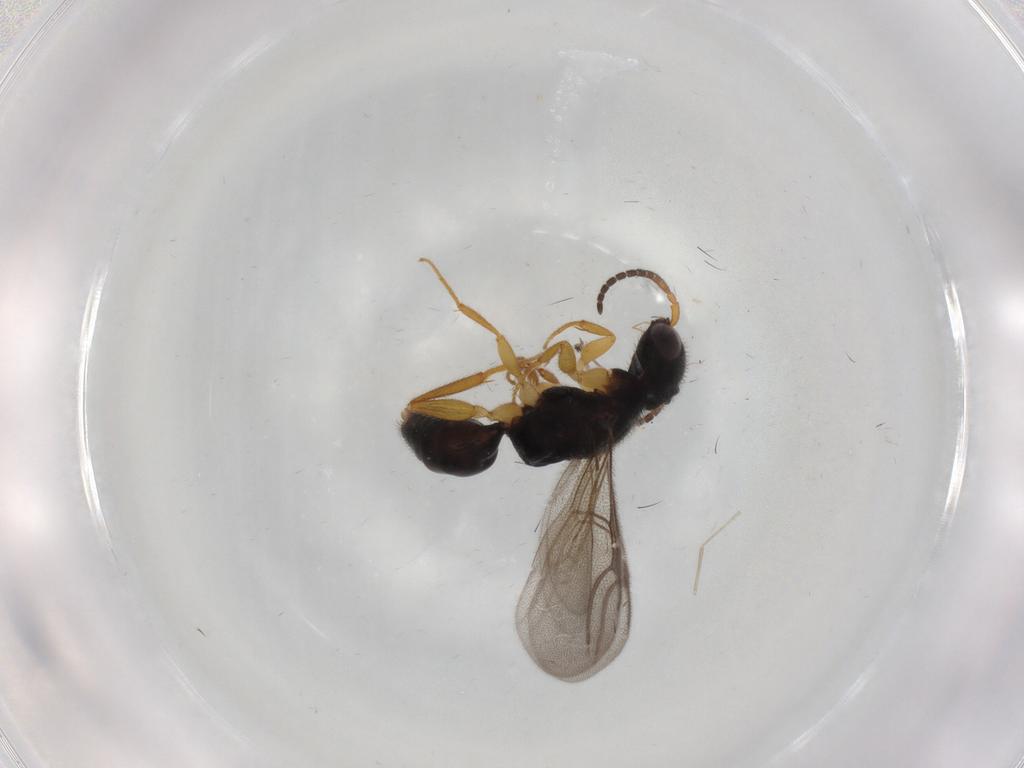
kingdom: Animalia
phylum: Arthropoda
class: Insecta
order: Hymenoptera
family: Bethylidae
